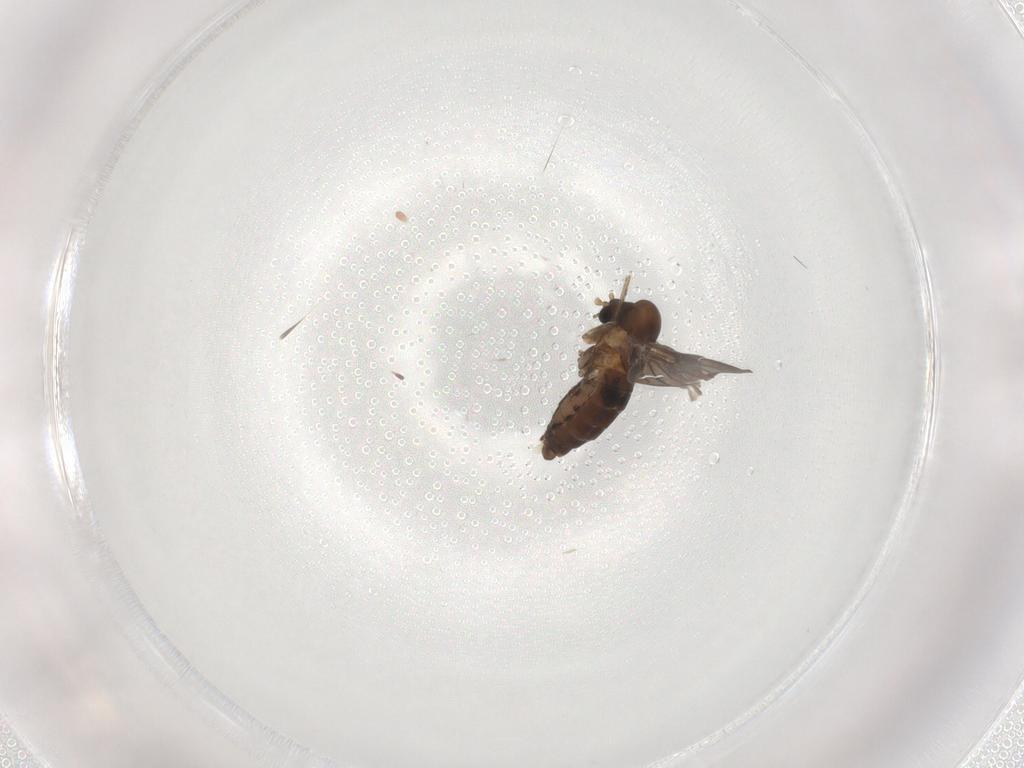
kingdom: Animalia
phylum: Arthropoda
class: Insecta
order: Diptera
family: Psychodidae
